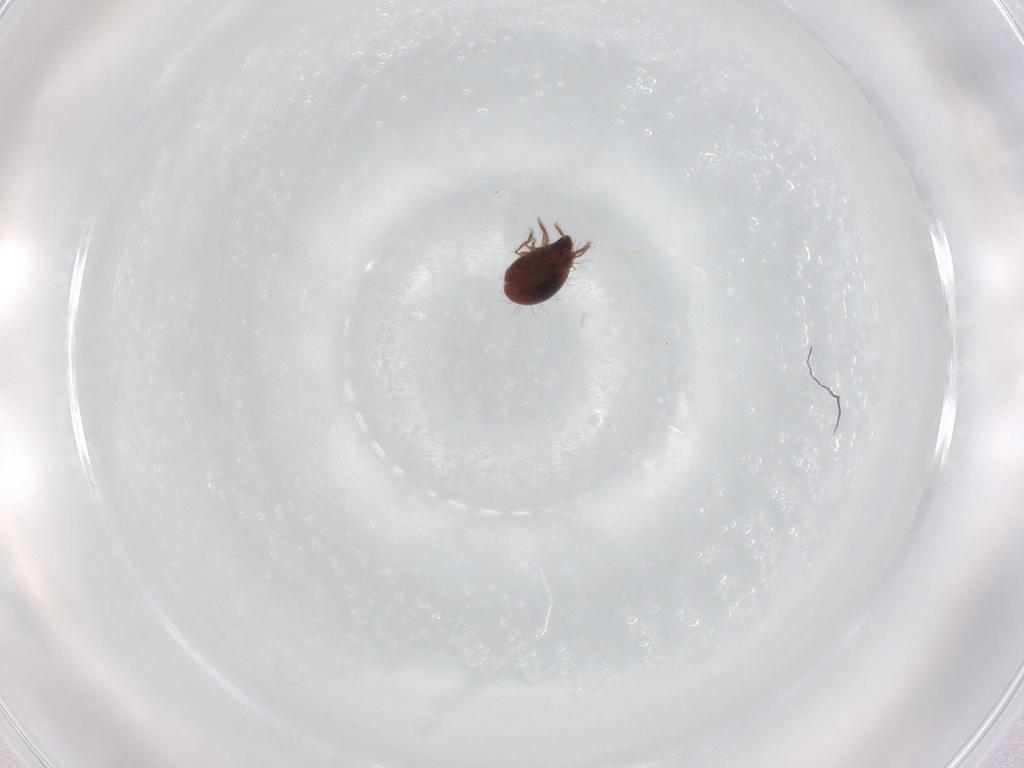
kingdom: Animalia
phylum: Arthropoda
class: Arachnida
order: Sarcoptiformes
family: Humerobatidae
